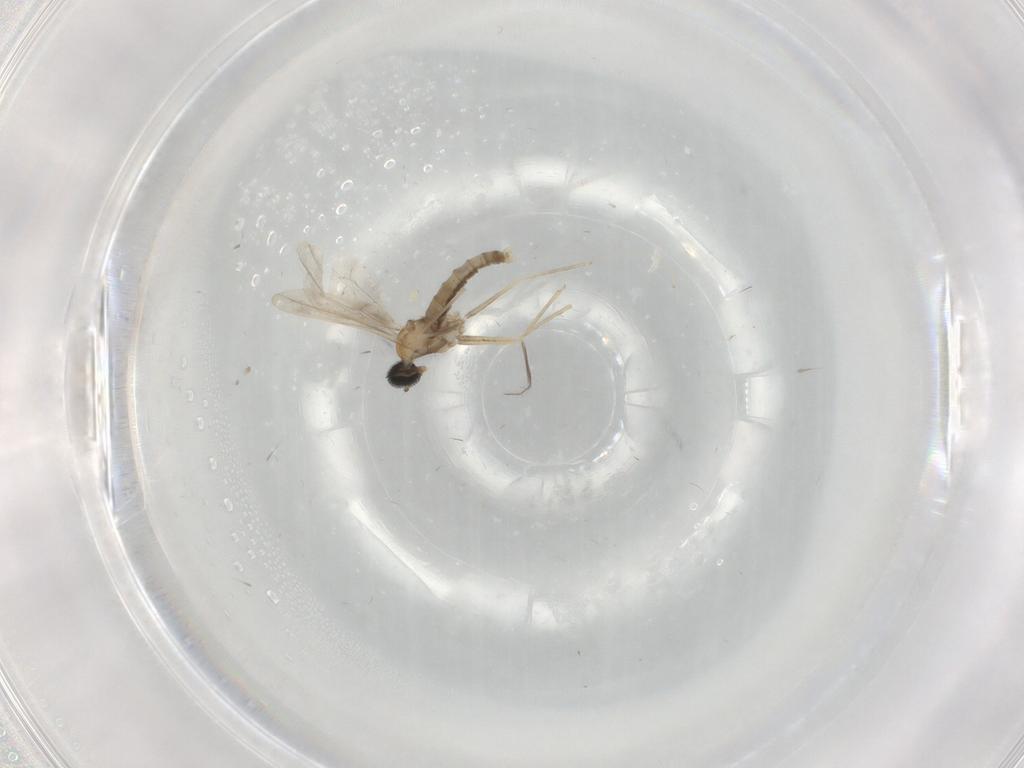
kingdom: Animalia
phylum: Arthropoda
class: Insecta
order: Diptera
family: Cecidomyiidae
